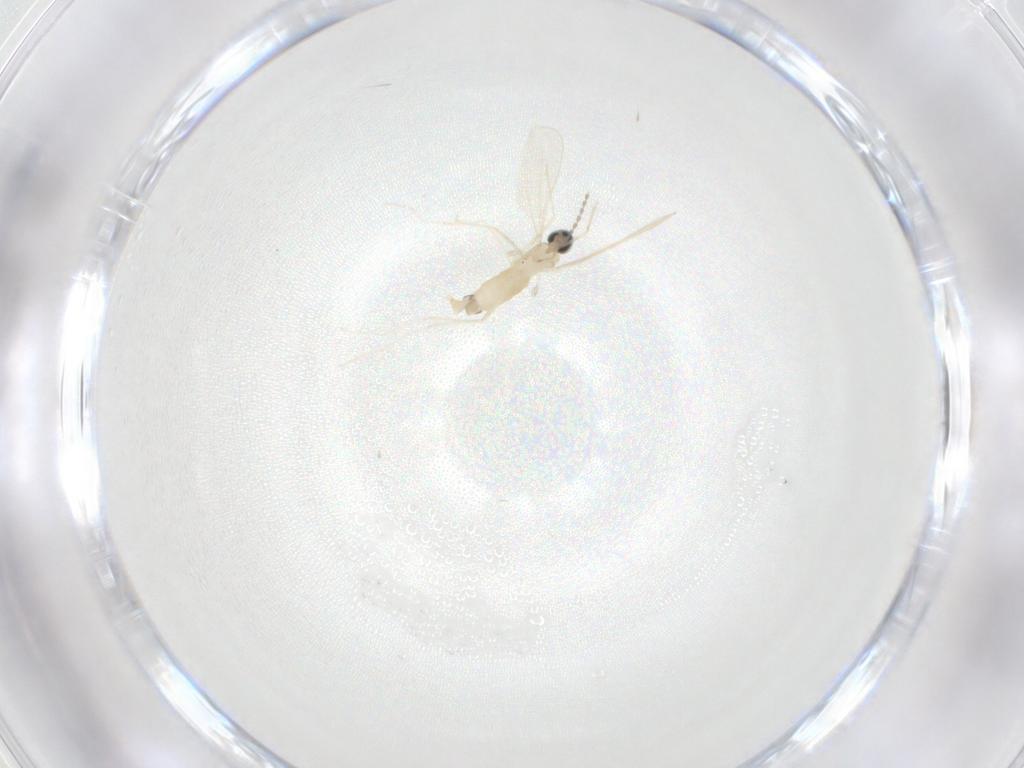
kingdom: Animalia
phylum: Arthropoda
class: Insecta
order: Diptera
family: Cecidomyiidae
